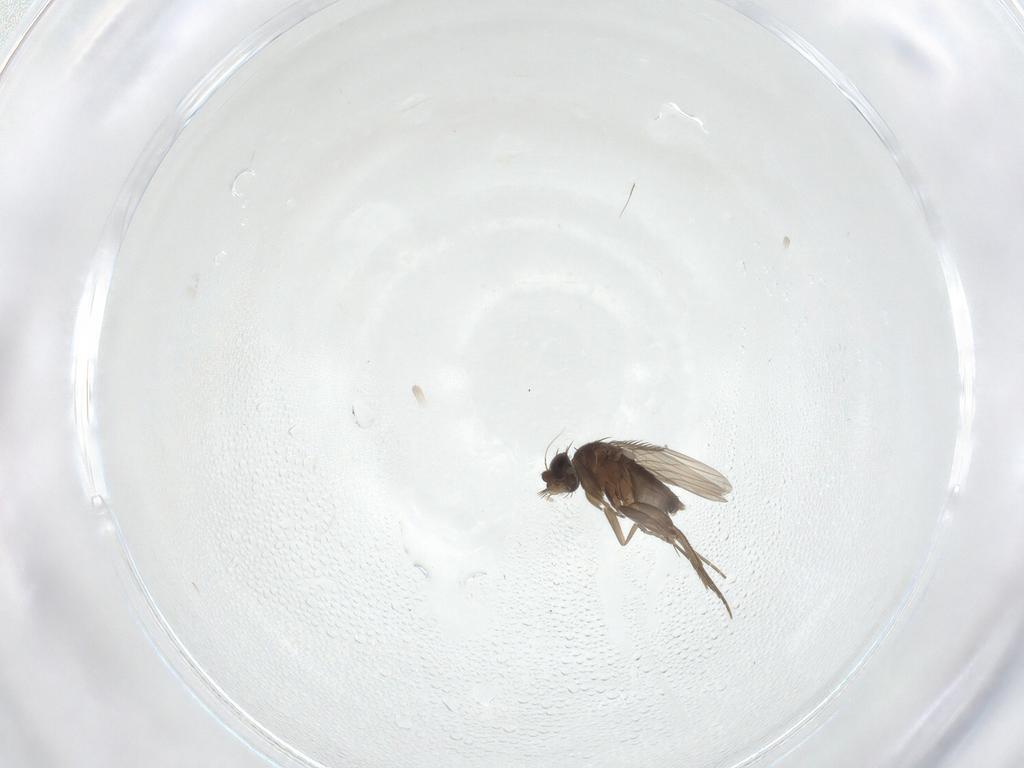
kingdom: Animalia
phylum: Arthropoda
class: Insecta
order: Diptera
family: Phoridae
